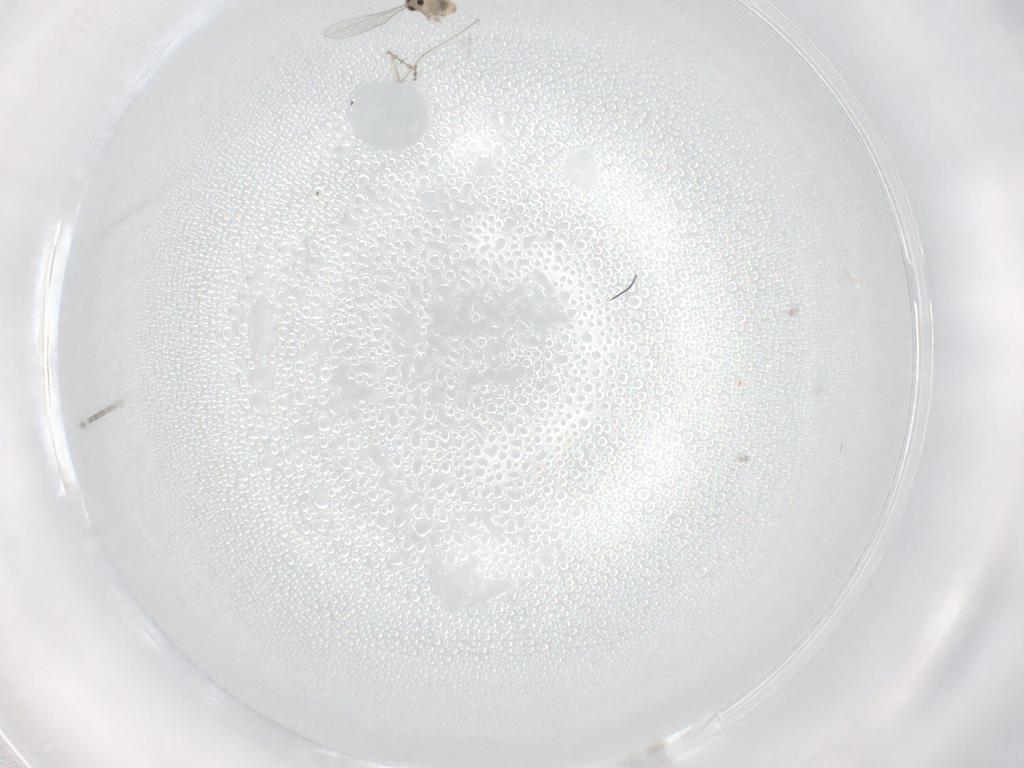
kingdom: Animalia
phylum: Arthropoda
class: Insecta
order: Diptera
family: Cecidomyiidae
